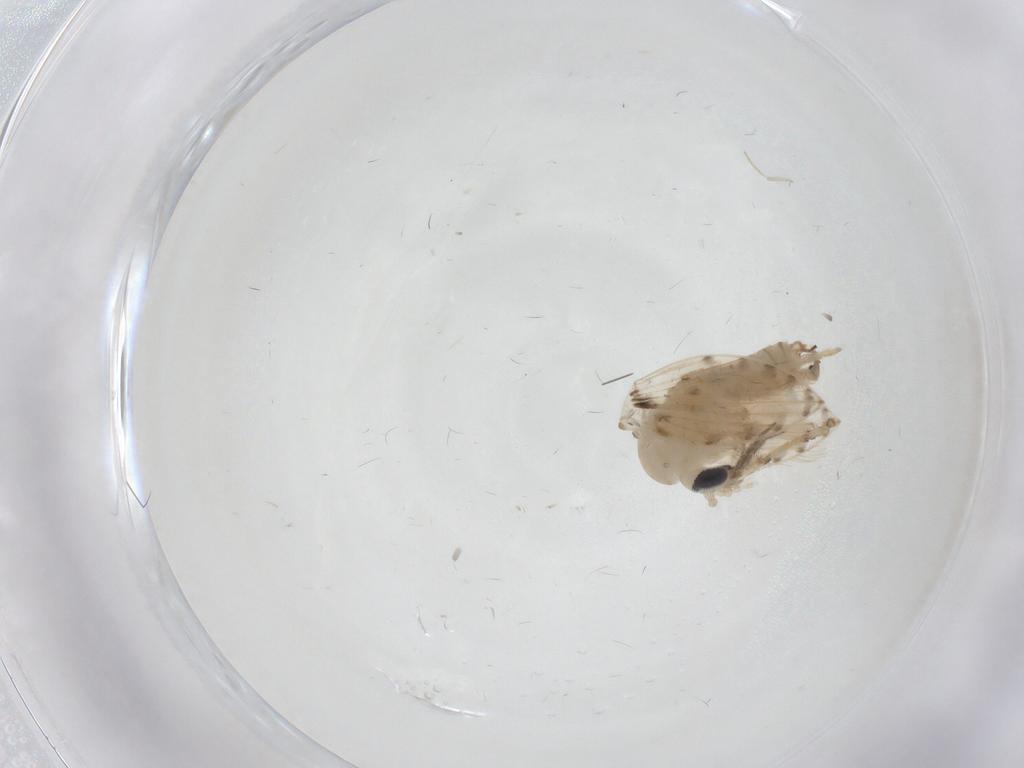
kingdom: Animalia
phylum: Arthropoda
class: Insecta
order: Diptera
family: Psychodidae
